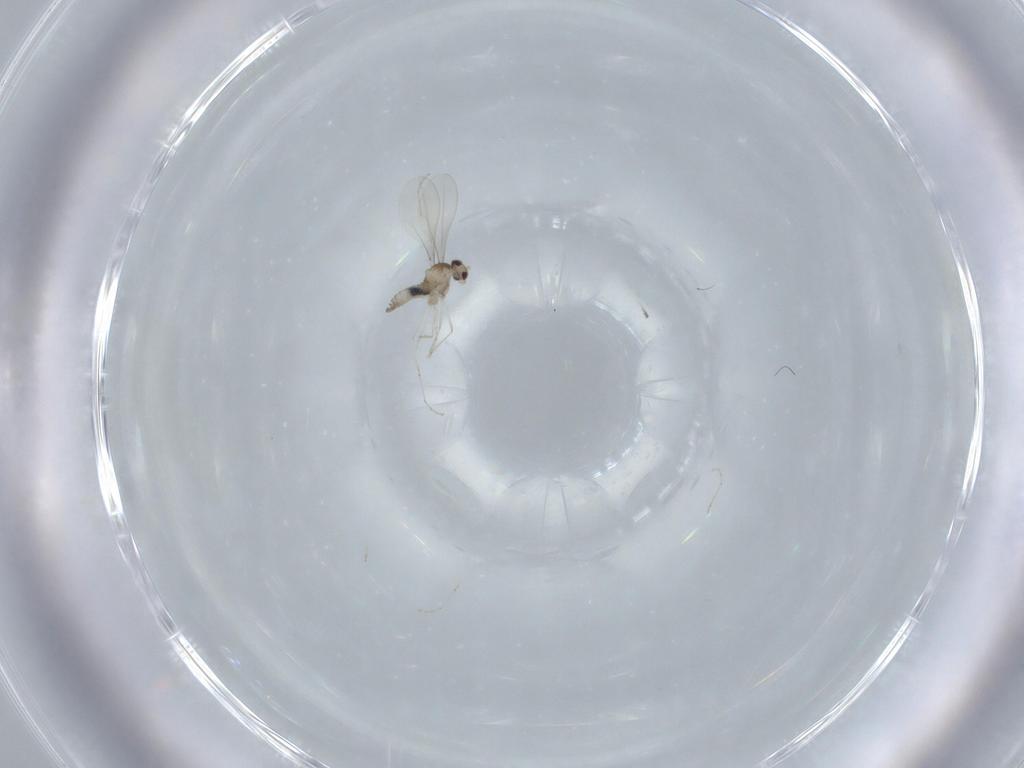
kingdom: Animalia
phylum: Arthropoda
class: Insecta
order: Diptera
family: Cecidomyiidae
